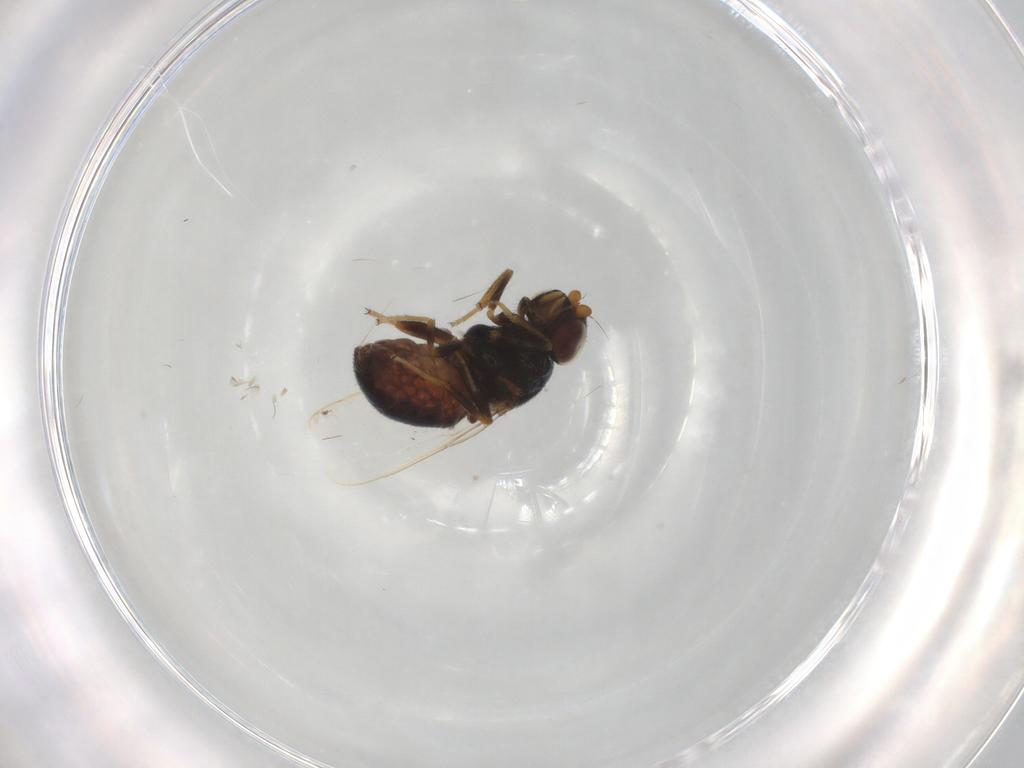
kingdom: Animalia
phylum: Arthropoda
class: Insecta
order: Diptera
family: Chloropidae
